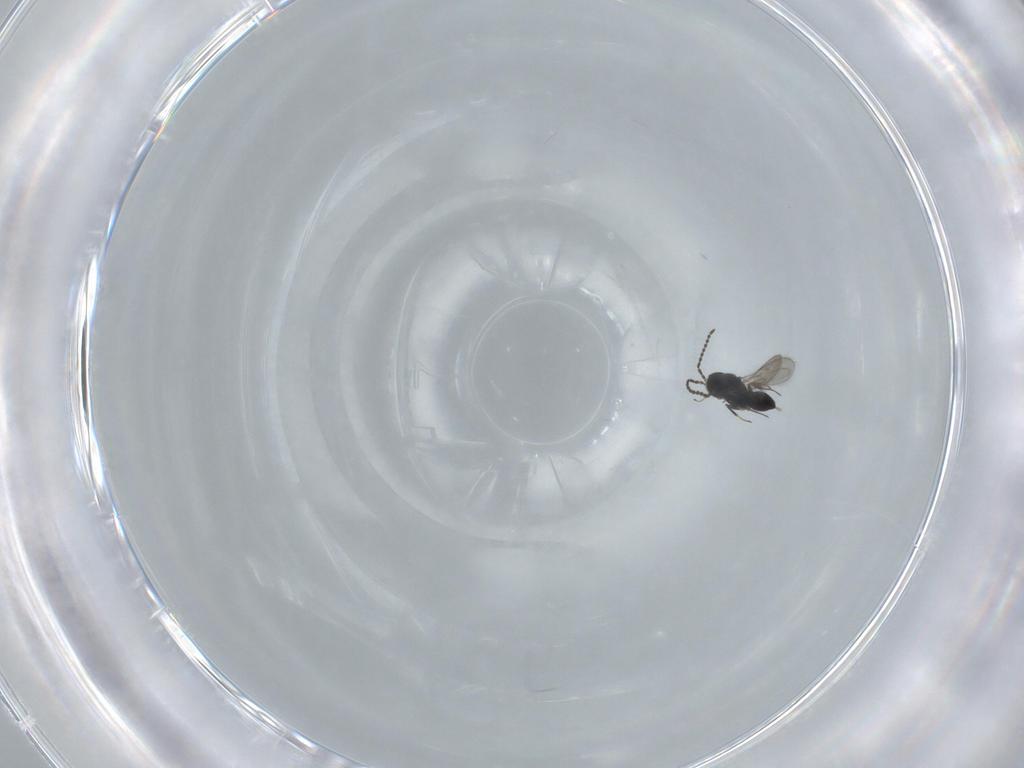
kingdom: Animalia
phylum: Arthropoda
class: Insecta
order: Hymenoptera
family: Scelionidae
